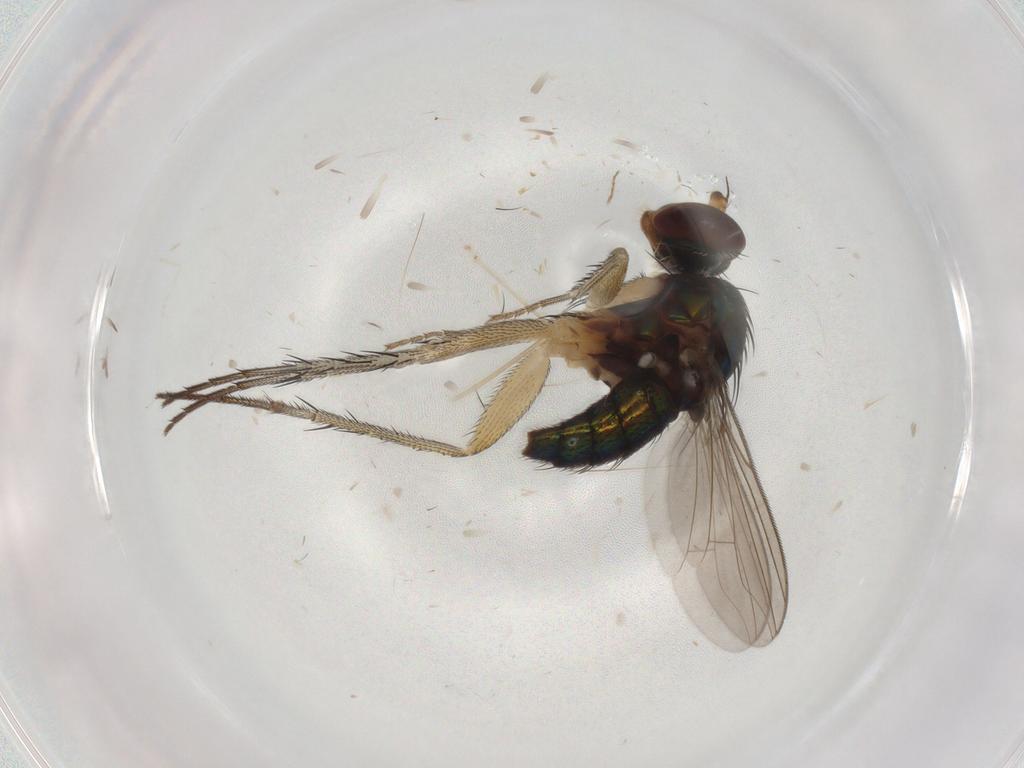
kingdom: Animalia
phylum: Arthropoda
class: Insecta
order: Diptera
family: Dolichopodidae
